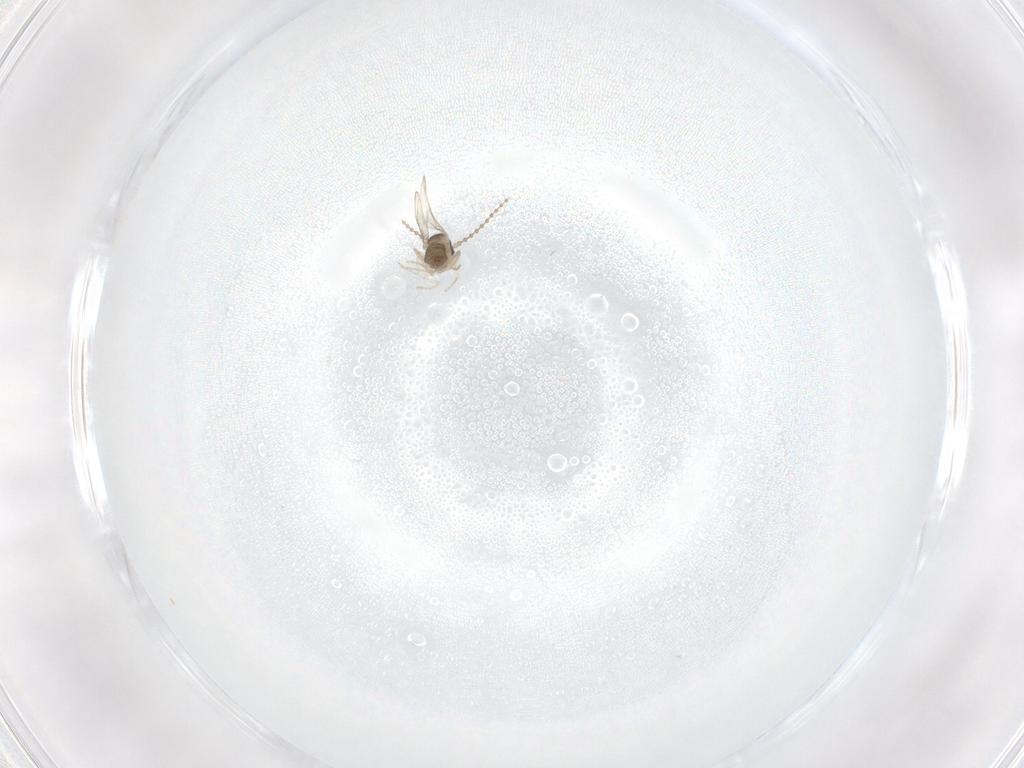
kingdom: Animalia
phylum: Arthropoda
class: Insecta
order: Diptera
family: Cecidomyiidae
